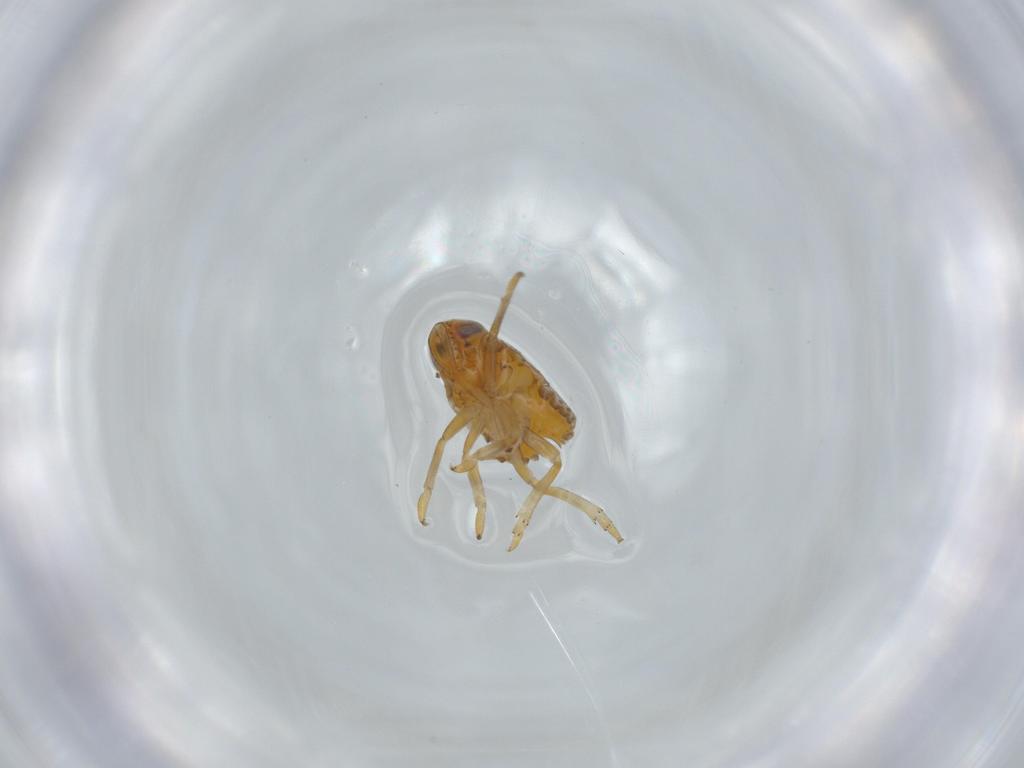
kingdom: Animalia
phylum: Arthropoda
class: Insecta
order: Hemiptera
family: Issidae
